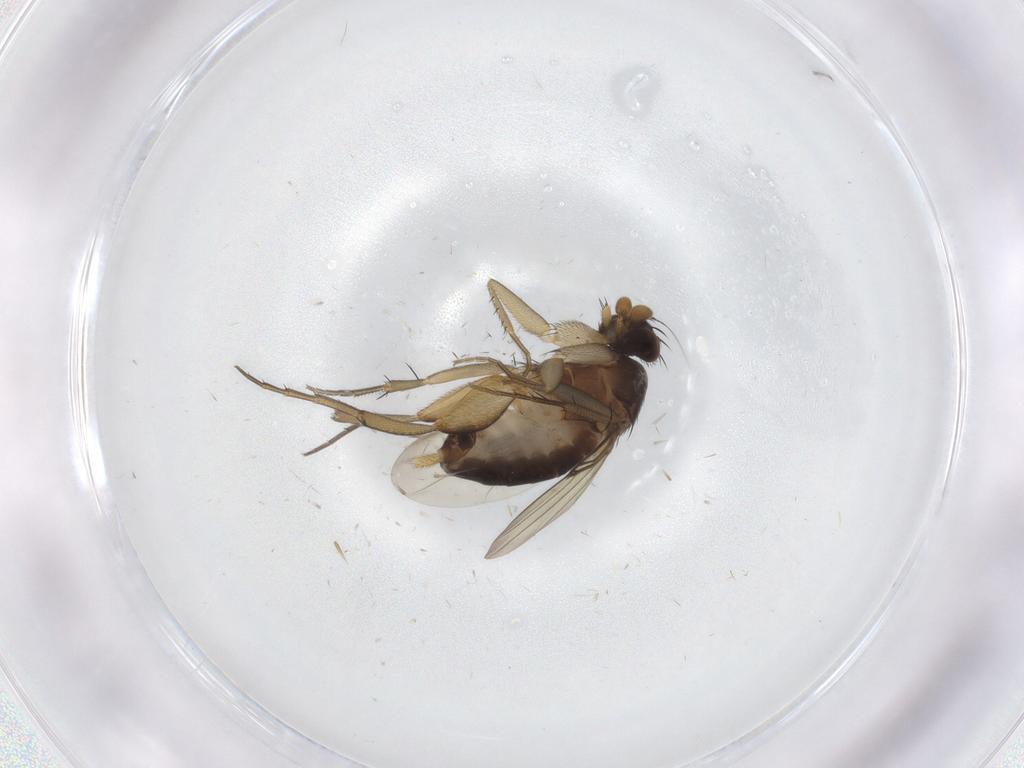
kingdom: Animalia
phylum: Arthropoda
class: Insecta
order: Diptera
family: Phoridae
